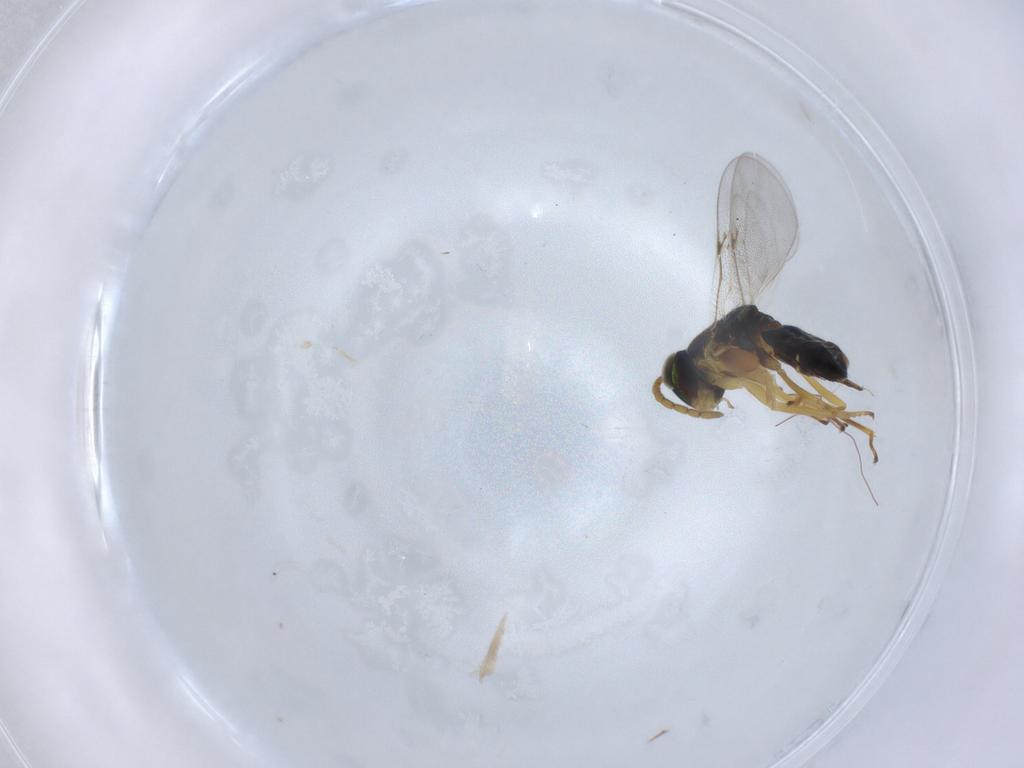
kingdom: Animalia
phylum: Arthropoda
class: Insecta
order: Hymenoptera
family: Encyrtidae
